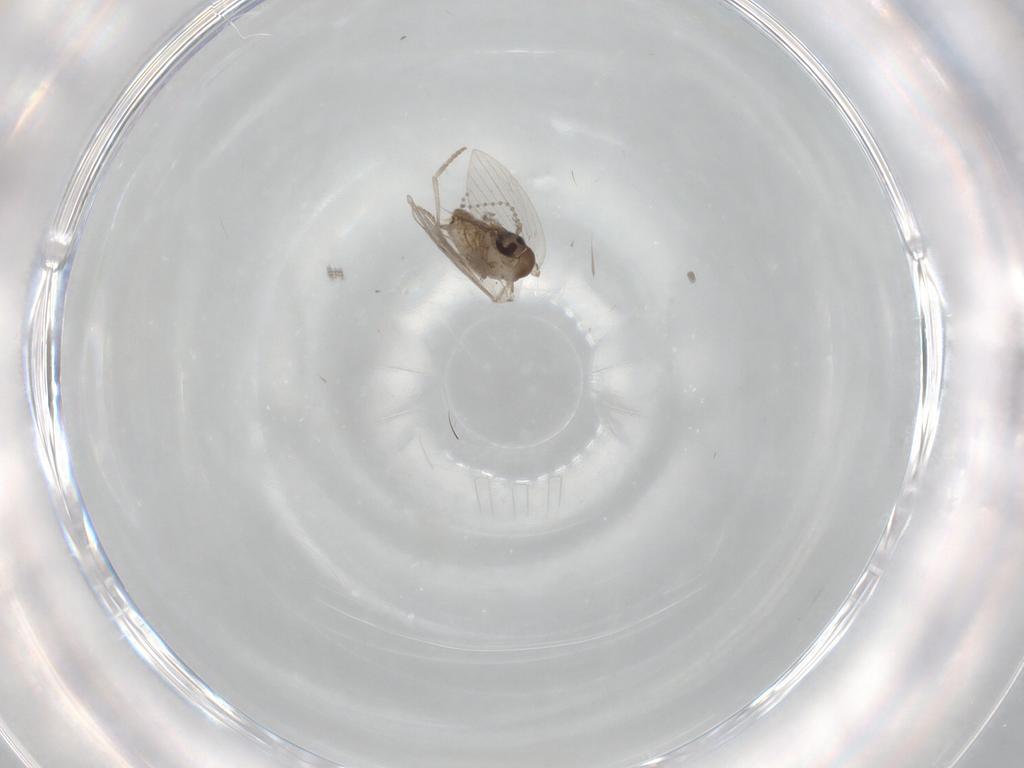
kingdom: Animalia
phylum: Arthropoda
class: Insecta
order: Diptera
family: Psychodidae
